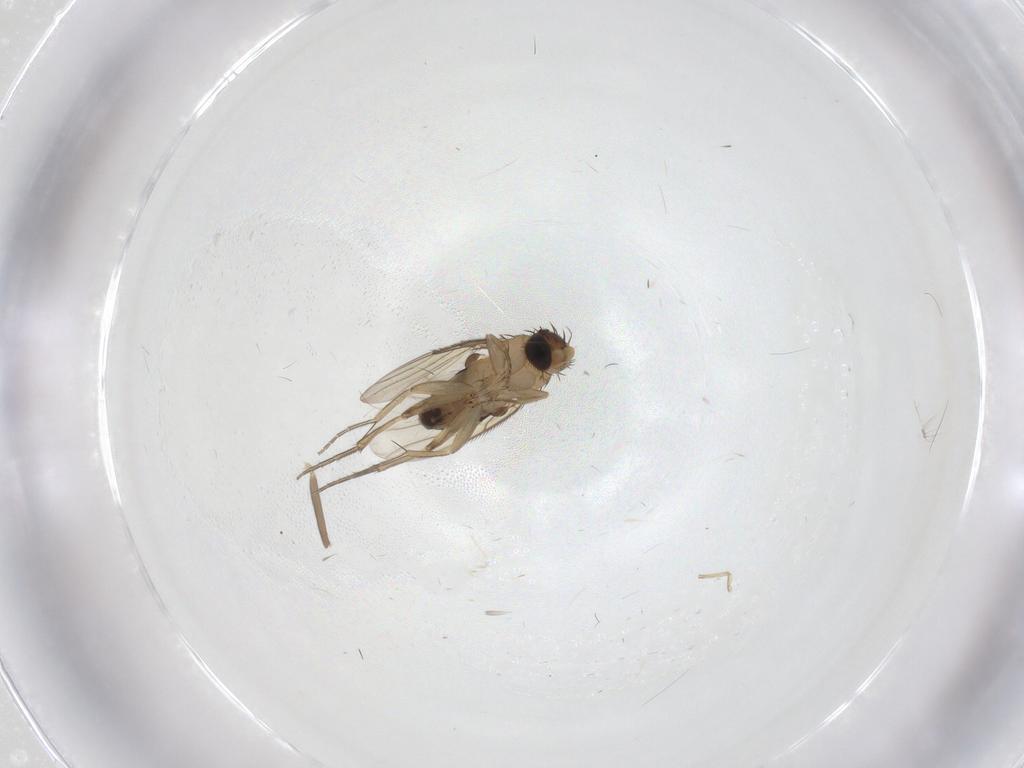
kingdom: Animalia
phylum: Arthropoda
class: Insecta
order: Diptera
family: Phoridae
